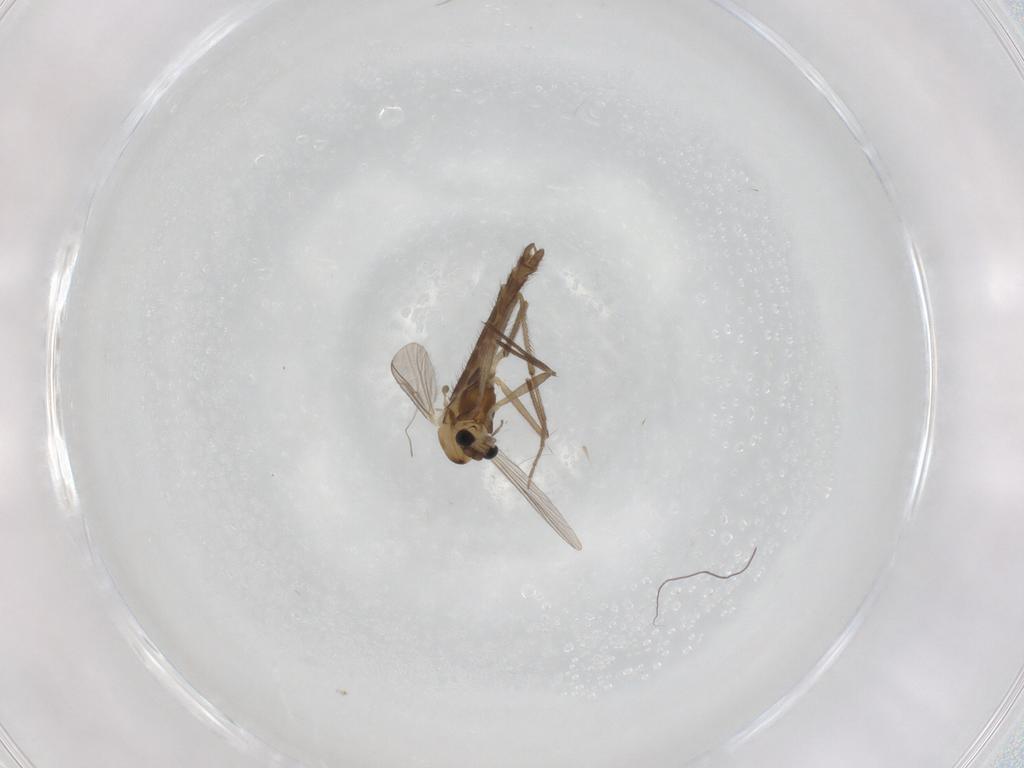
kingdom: Animalia
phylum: Arthropoda
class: Insecta
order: Diptera
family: Chironomidae
